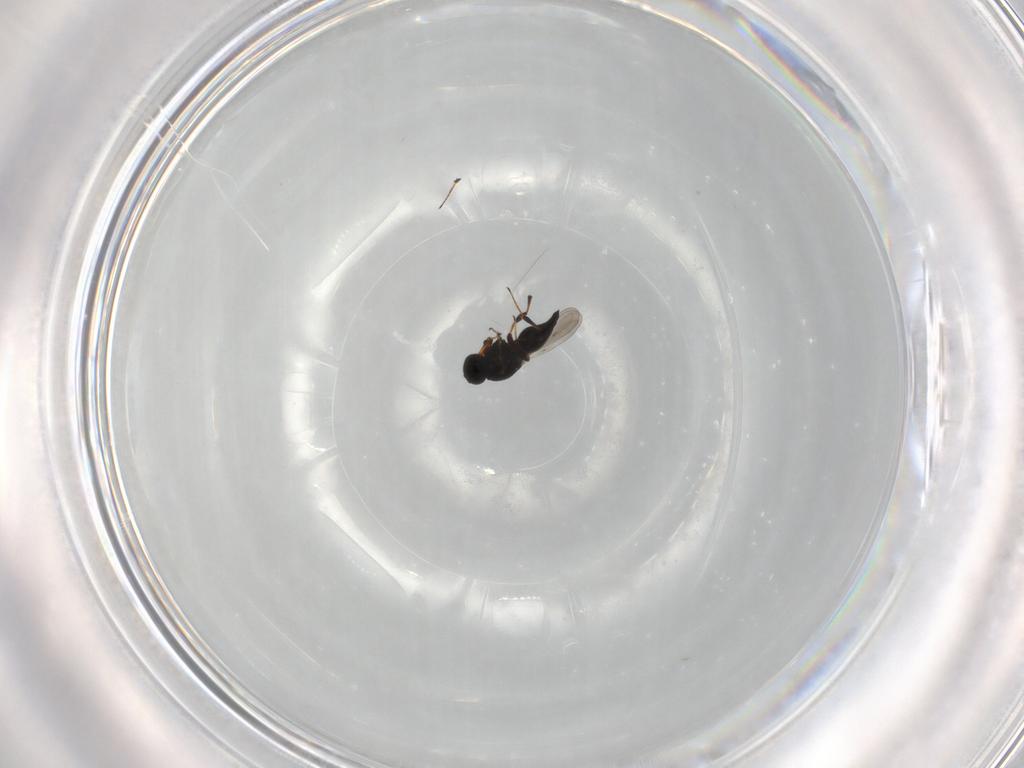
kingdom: Animalia
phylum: Arthropoda
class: Insecta
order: Hymenoptera
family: Platygastridae
